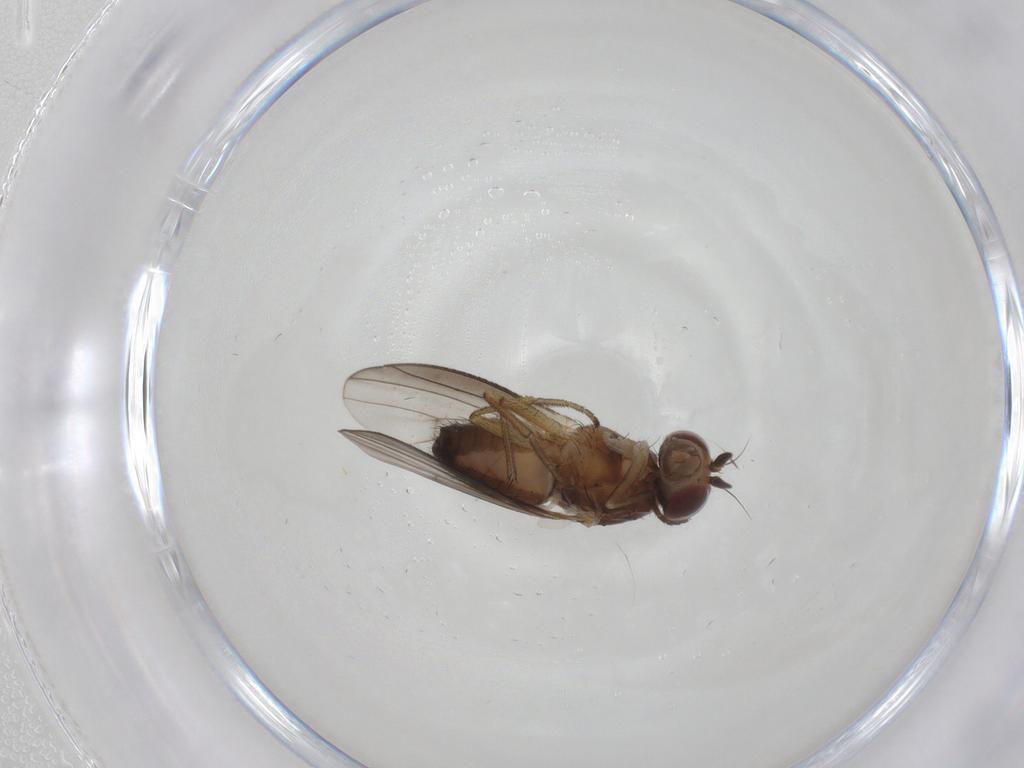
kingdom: Animalia
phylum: Arthropoda
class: Insecta
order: Diptera
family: Heleomyzidae
